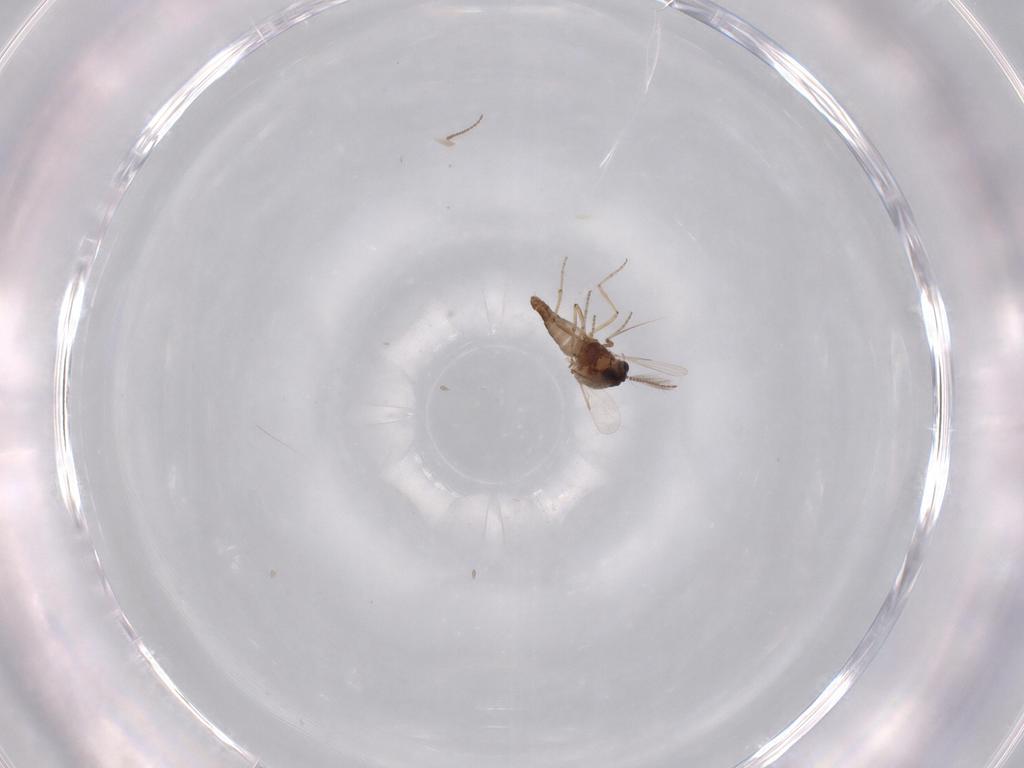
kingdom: Animalia
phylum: Arthropoda
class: Insecta
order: Diptera
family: Ceratopogonidae
